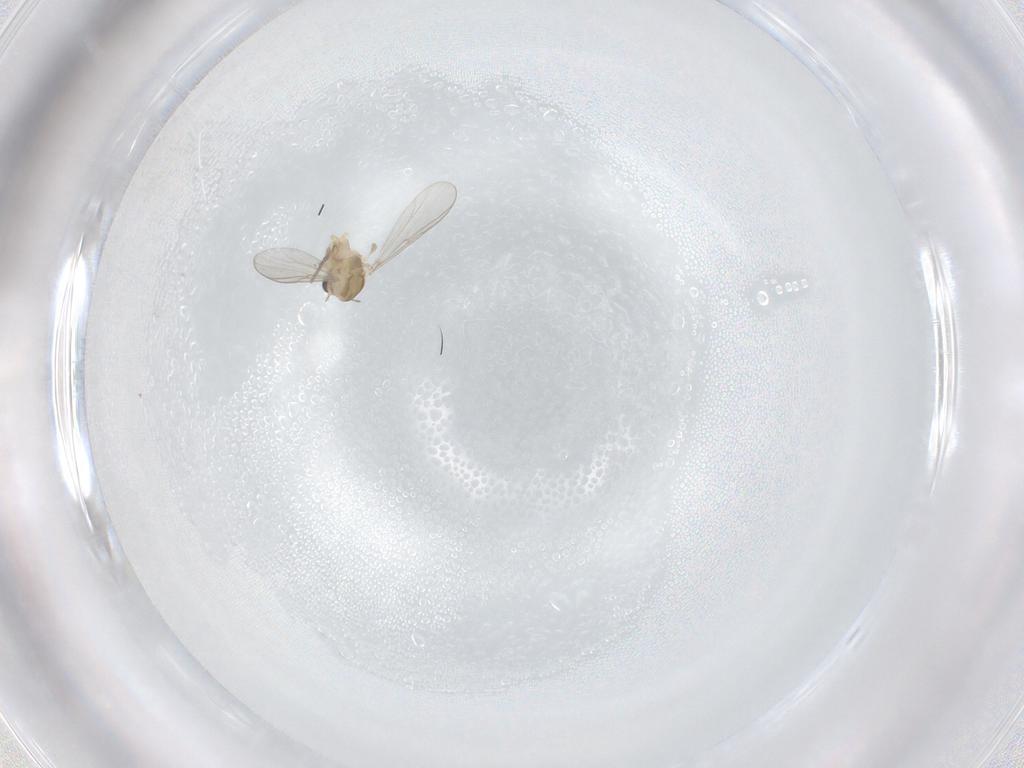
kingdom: Animalia
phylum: Arthropoda
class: Insecta
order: Diptera
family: Chironomidae
